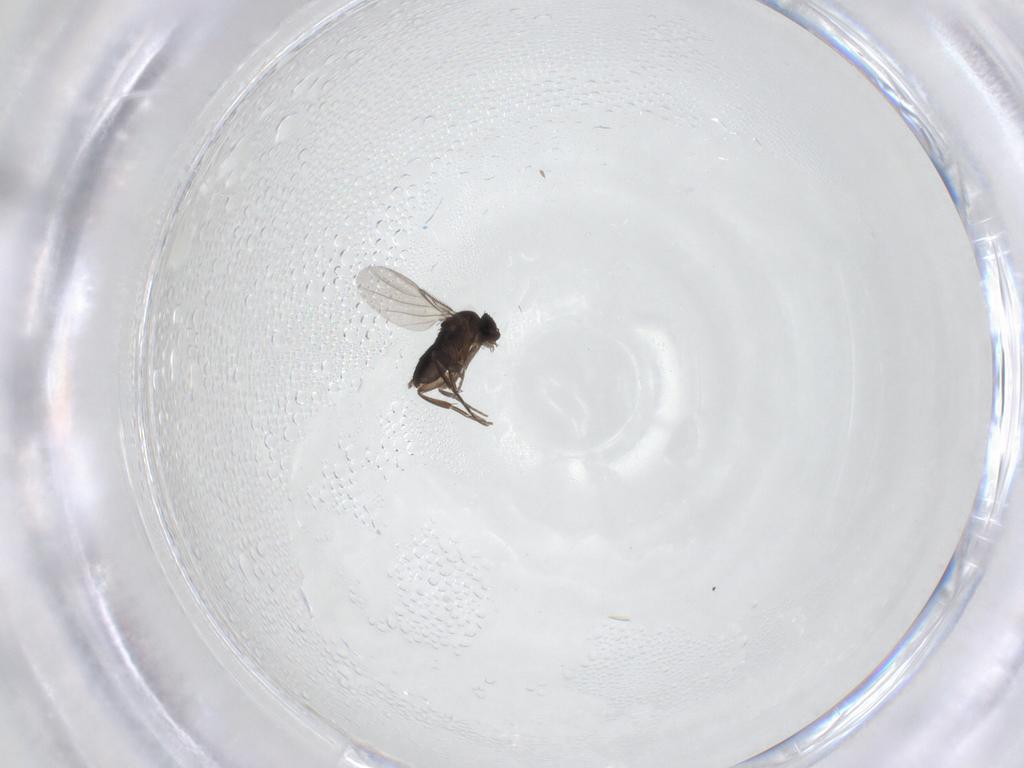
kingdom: Animalia
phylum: Arthropoda
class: Insecta
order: Diptera
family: Phoridae
